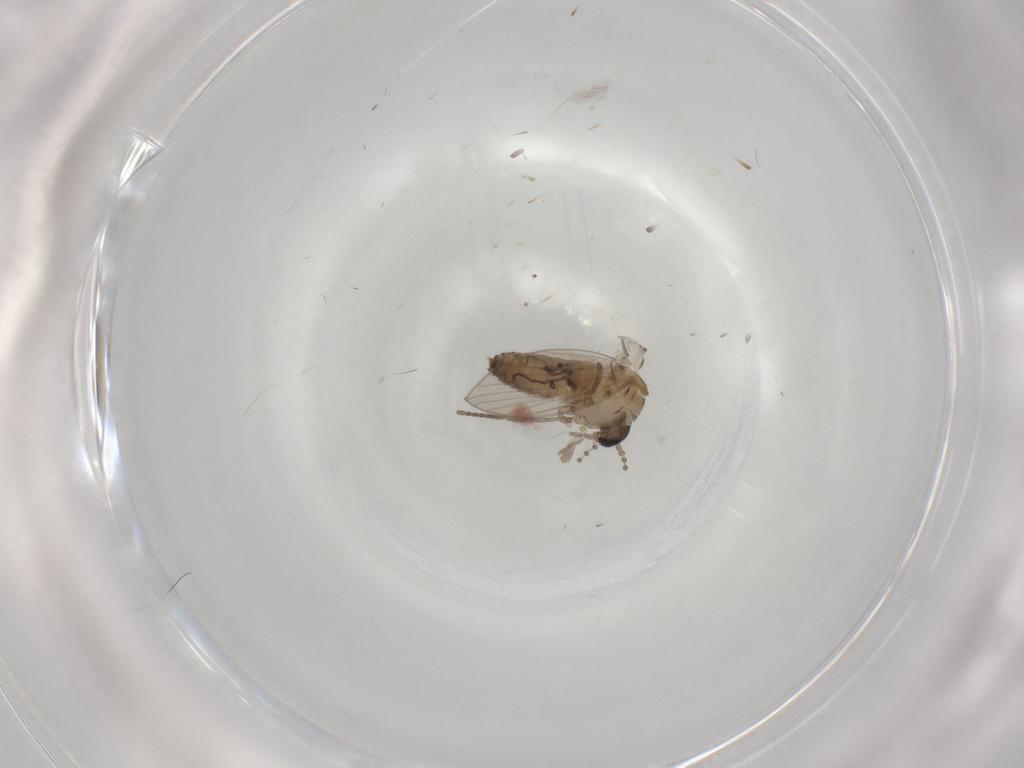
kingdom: Animalia
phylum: Arthropoda
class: Insecta
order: Diptera
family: Psychodidae
